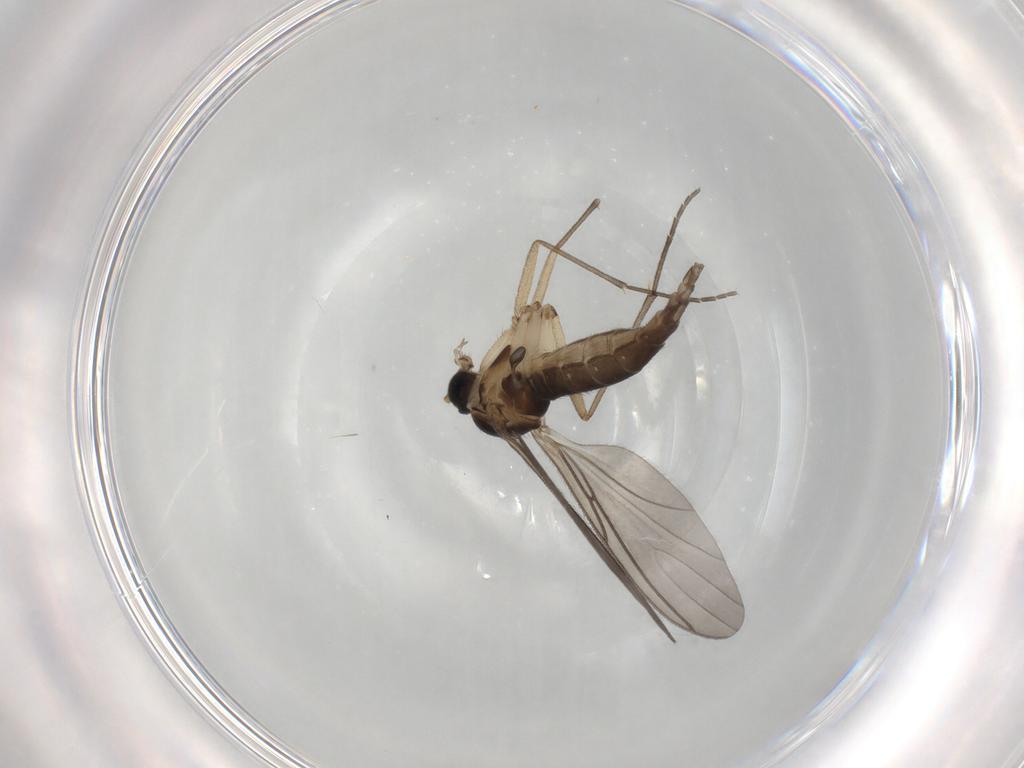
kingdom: Animalia
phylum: Arthropoda
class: Insecta
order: Diptera
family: Sciaridae
